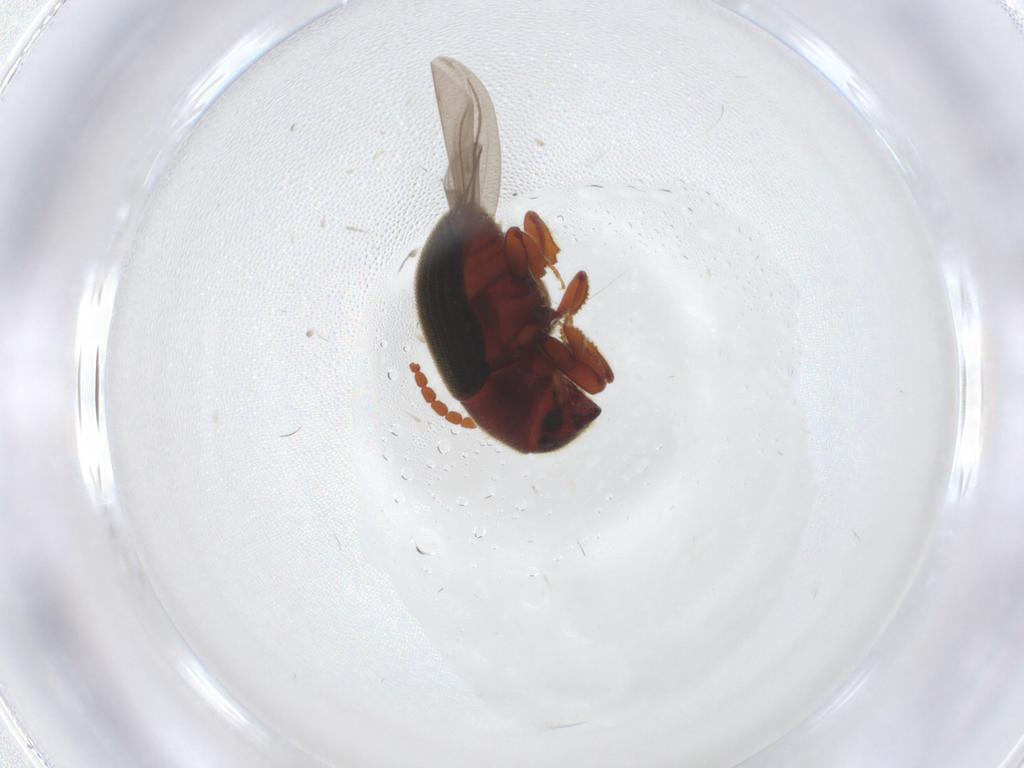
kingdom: Animalia
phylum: Arthropoda
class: Insecta
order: Coleoptera
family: Eucnemidae
